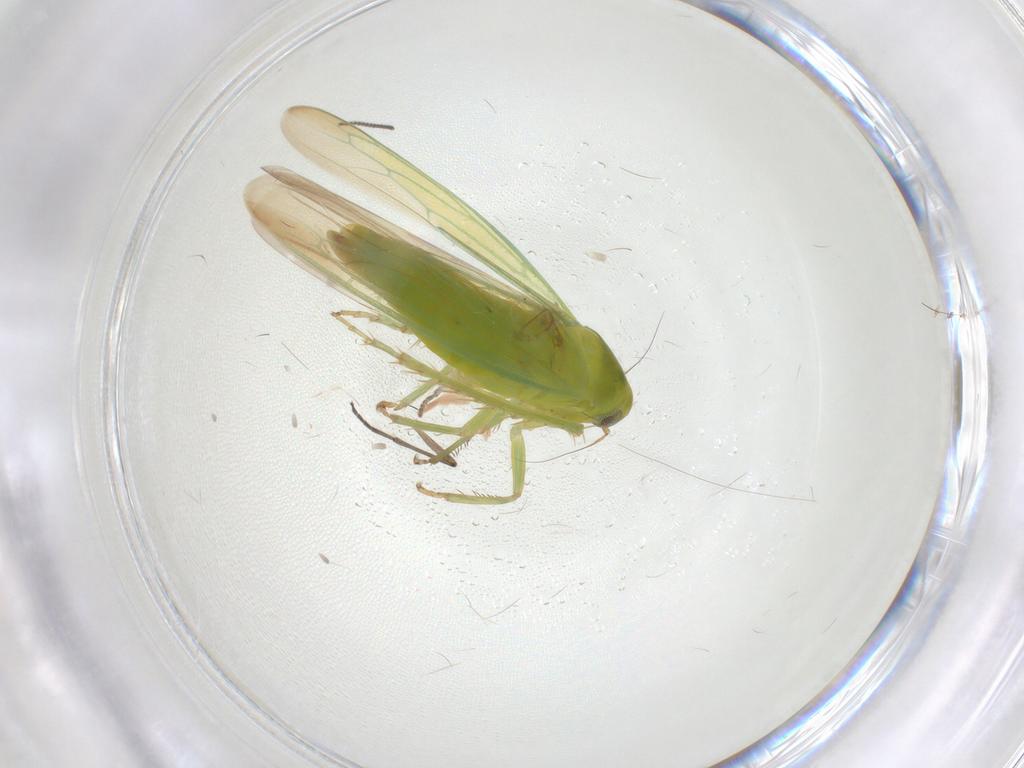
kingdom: Animalia
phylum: Arthropoda
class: Insecta
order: Hemiptera
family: Cicadellidae
